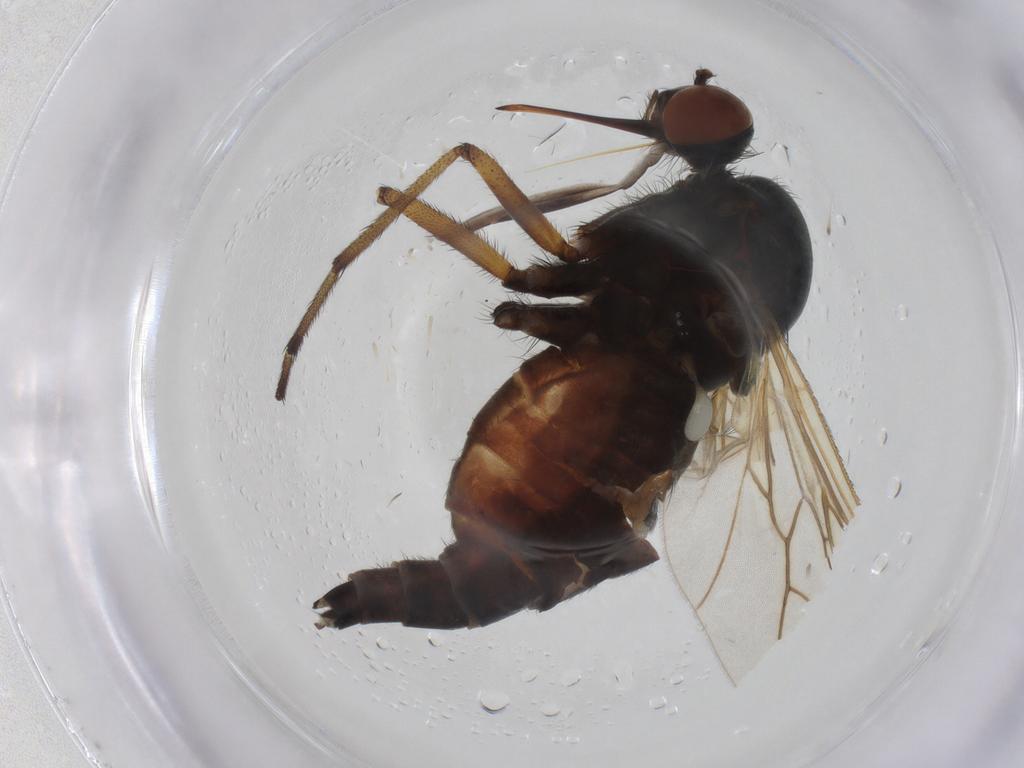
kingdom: Animalia
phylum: Arthropoda
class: Insecta
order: Diptera
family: Empididae
